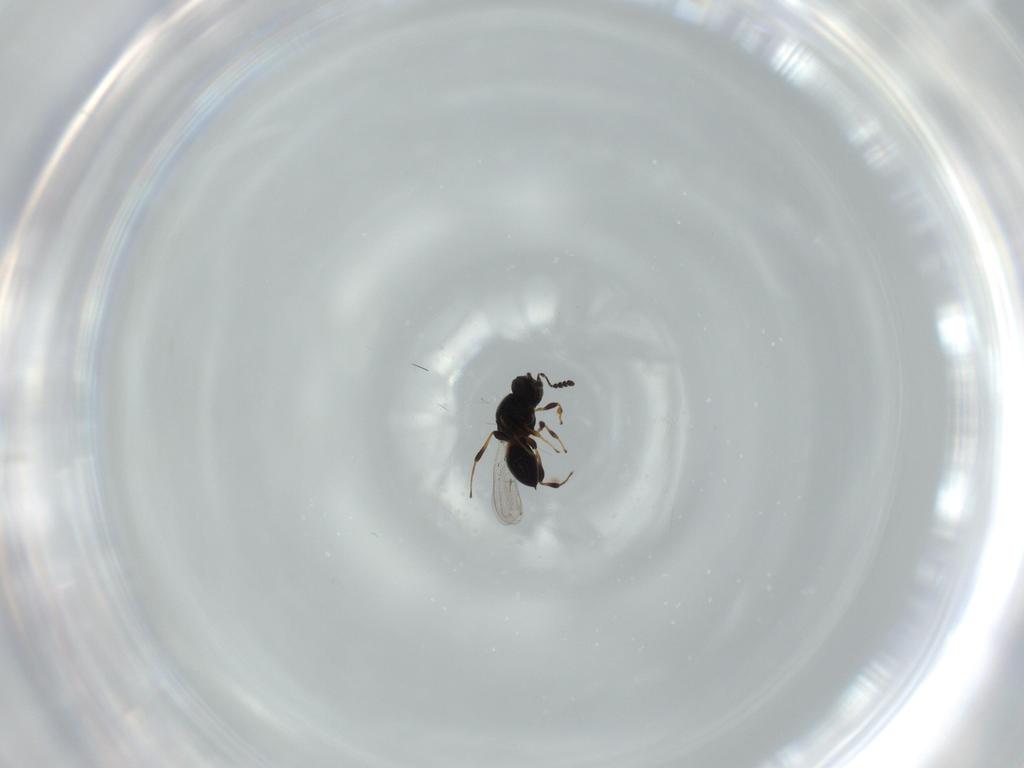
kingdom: Animalia
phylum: Arthropoda
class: Insecta
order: Hymenoptera
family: Platygastridae
